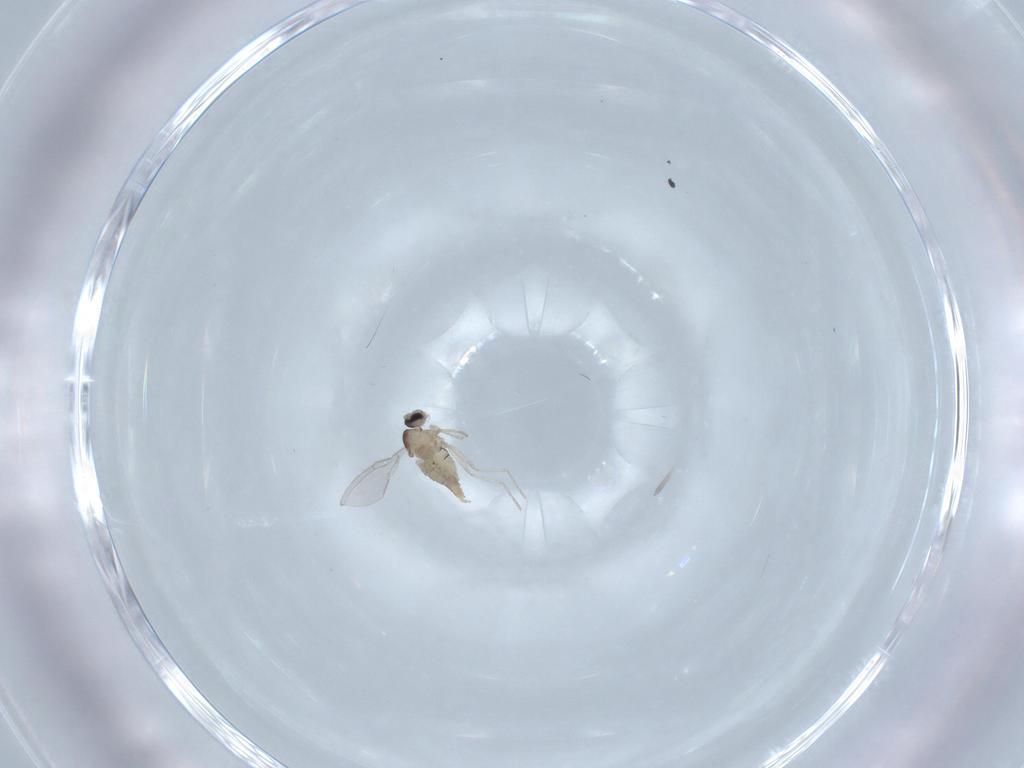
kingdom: Animalia
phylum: Arthropoda
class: Insecta
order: Diptera
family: Cecidomyiidae
